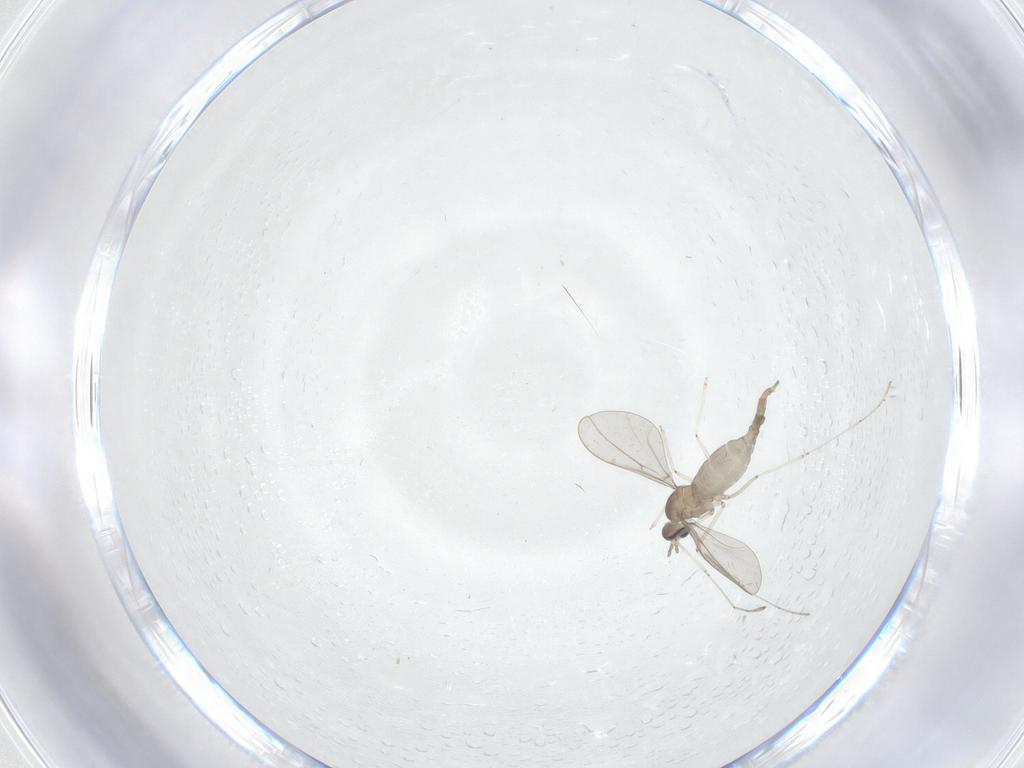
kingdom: Animalia
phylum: Arthropoda
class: Insecta
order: Diptera
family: Cecidomyiidae
